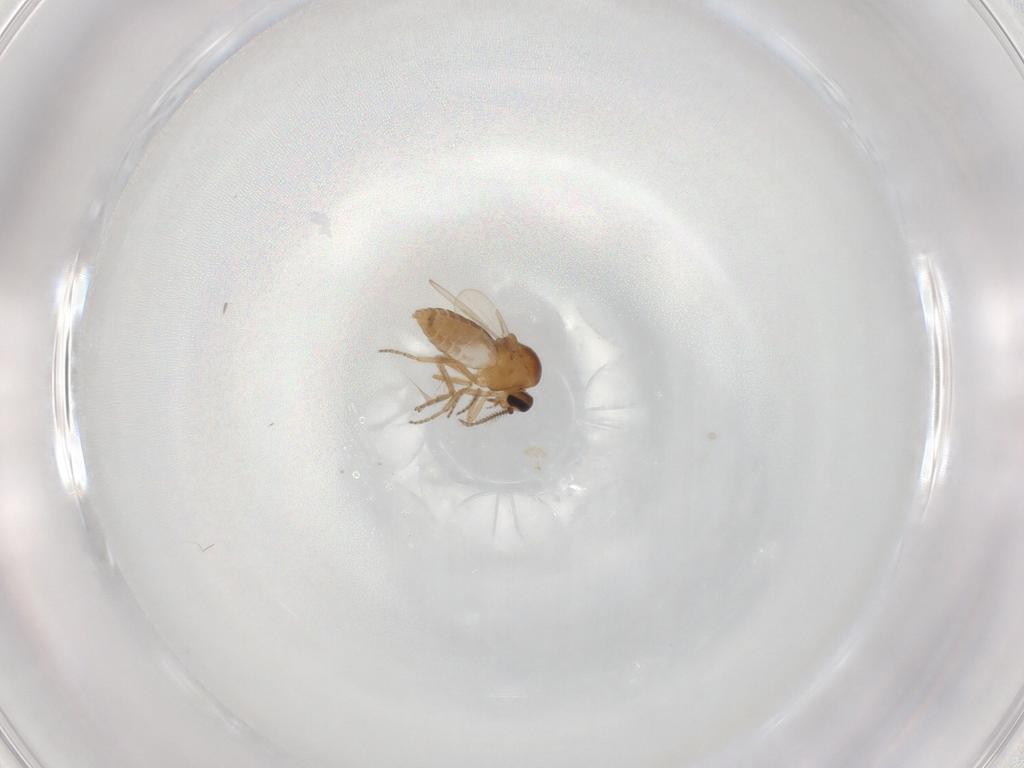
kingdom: Animalia
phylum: Arthropoda
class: Insecta
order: Diptera
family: Ceratopogonidae
